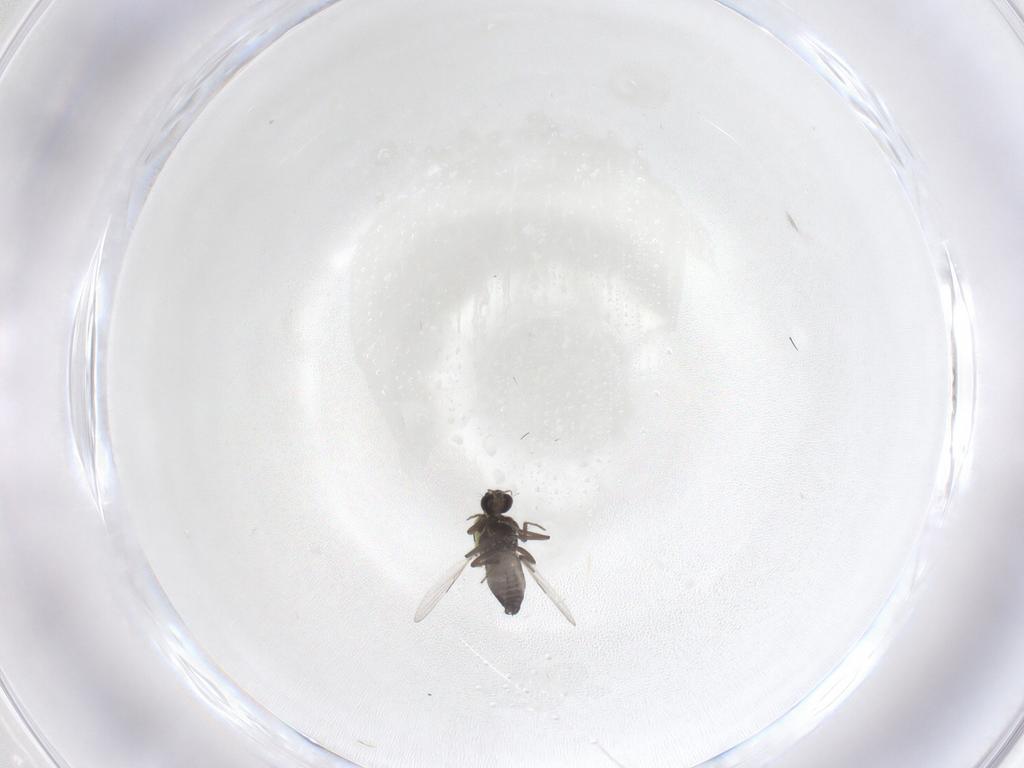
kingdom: Animalia
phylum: Arthropoda
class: Insecta
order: Diptera
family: Ceratopogonidae
